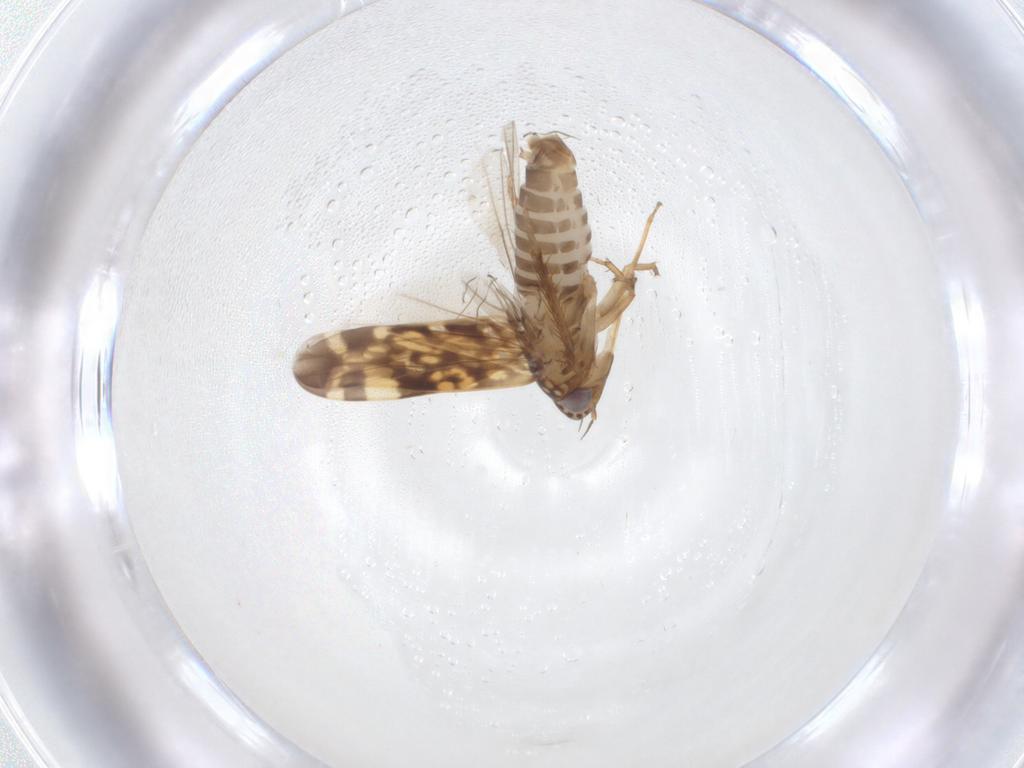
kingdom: Animalia
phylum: Arthropoda
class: Insecta
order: Hemiptera
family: Cicadellidae
